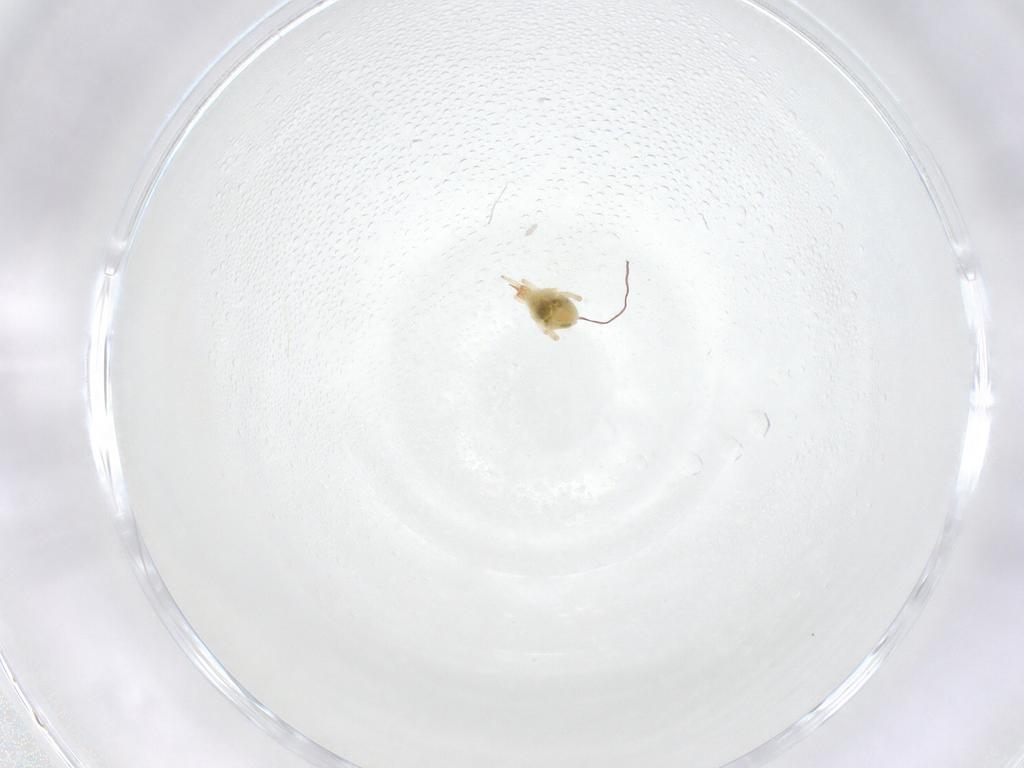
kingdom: Animalia
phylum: Arthropoda
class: Arachnida
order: Trombidiformes
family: Cunaxidae
